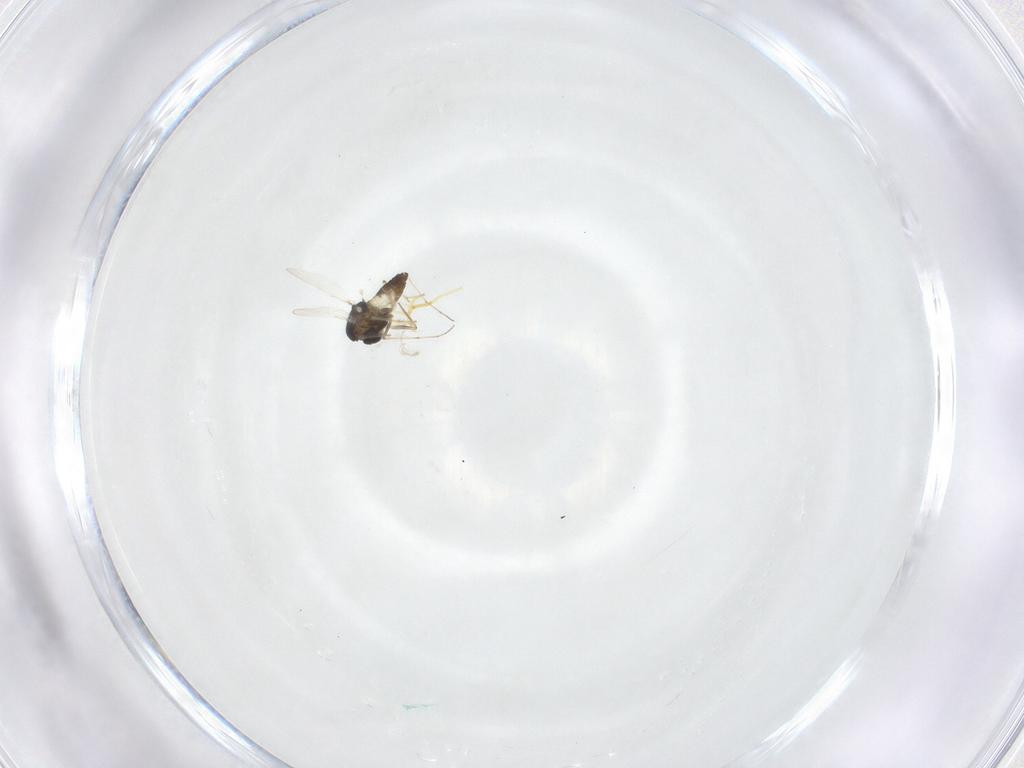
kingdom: Animalia
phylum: Arthropoda
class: Insecta
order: Diptera
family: Chironomidae
